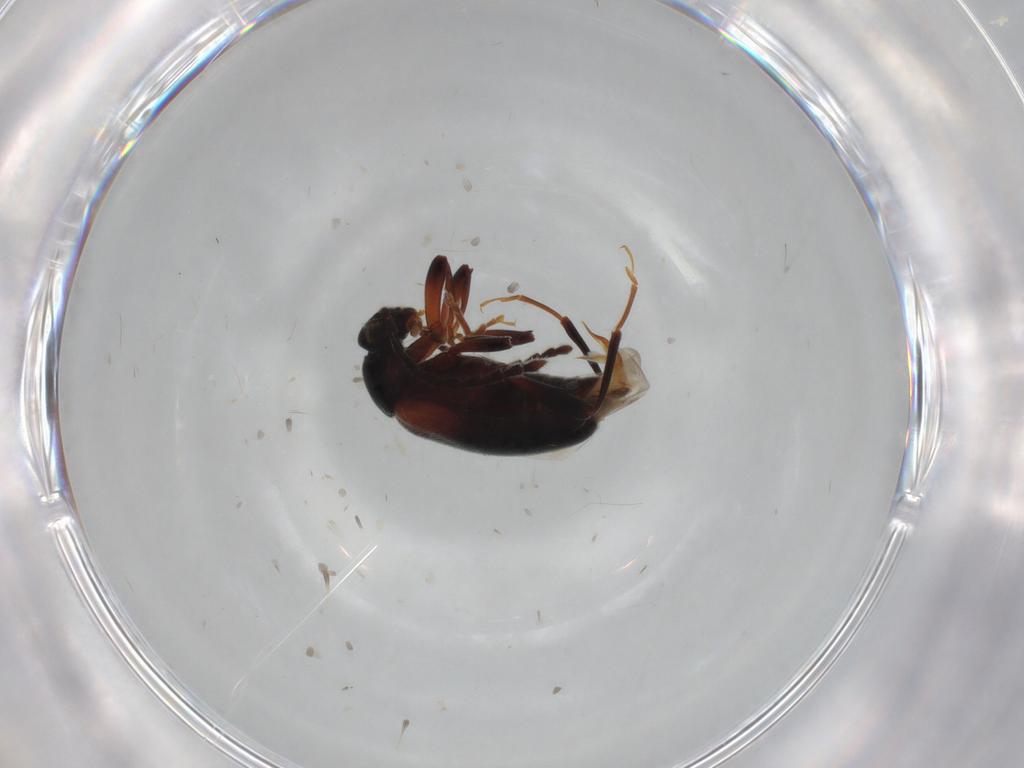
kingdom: Animalia
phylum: Arthropoda
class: Insecta
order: Coleoptera
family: Aderidae
